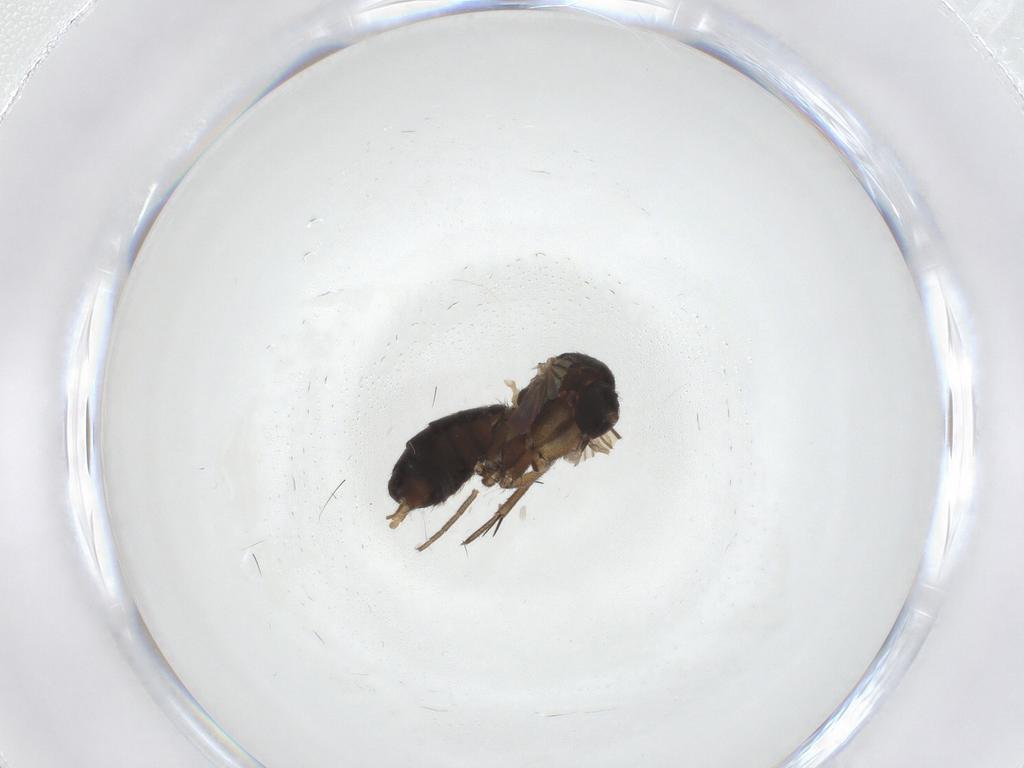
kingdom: Animalia
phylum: Arthropoda
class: Insecta
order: Diptera
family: Mycetophilidae
